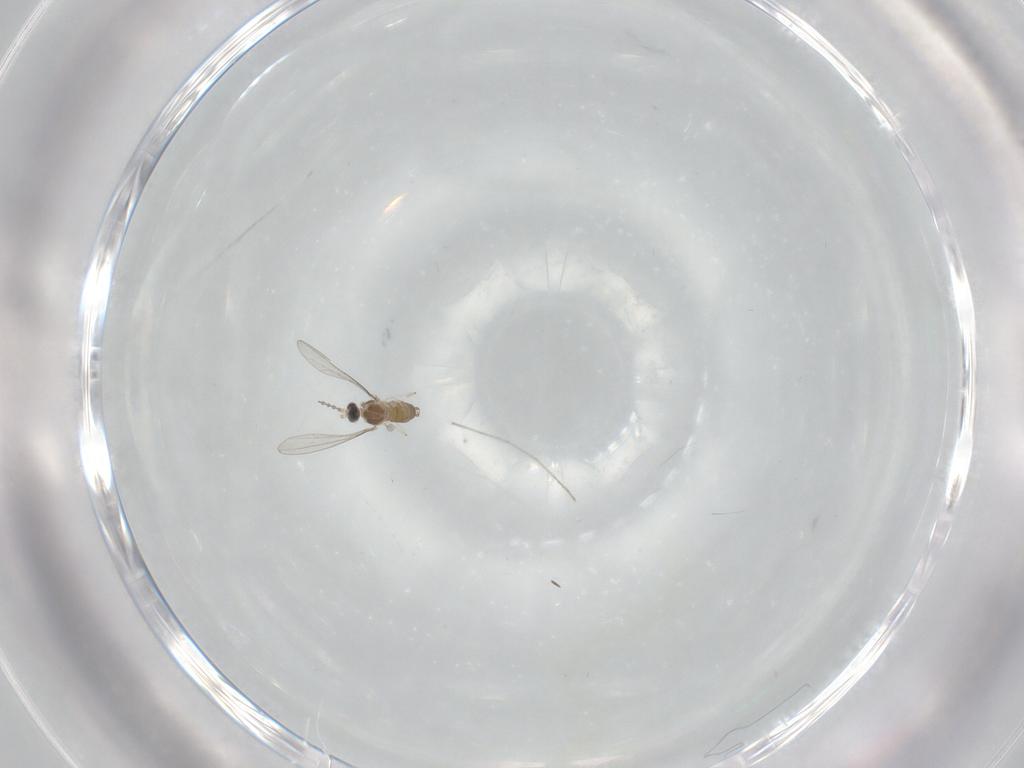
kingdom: Animalia
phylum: Arthropoda
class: Insecta
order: Diptera
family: Cecidomyiidae
